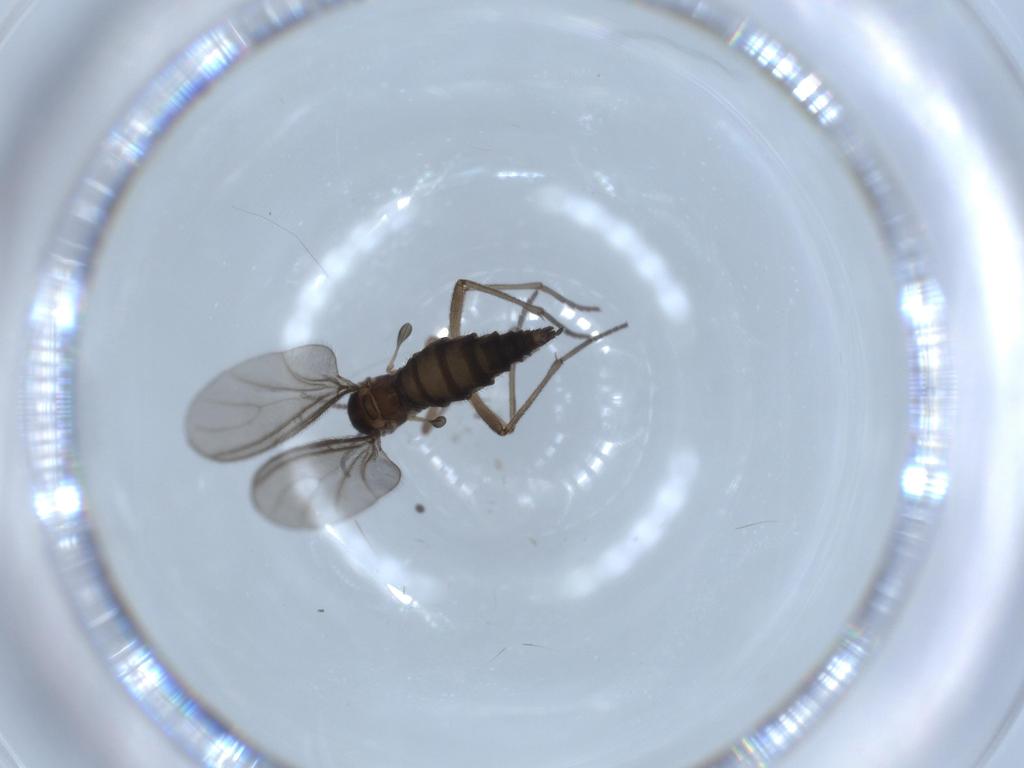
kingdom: Animalia
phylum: Arthropoda
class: Insecta
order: Diptera
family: Sciaridae
